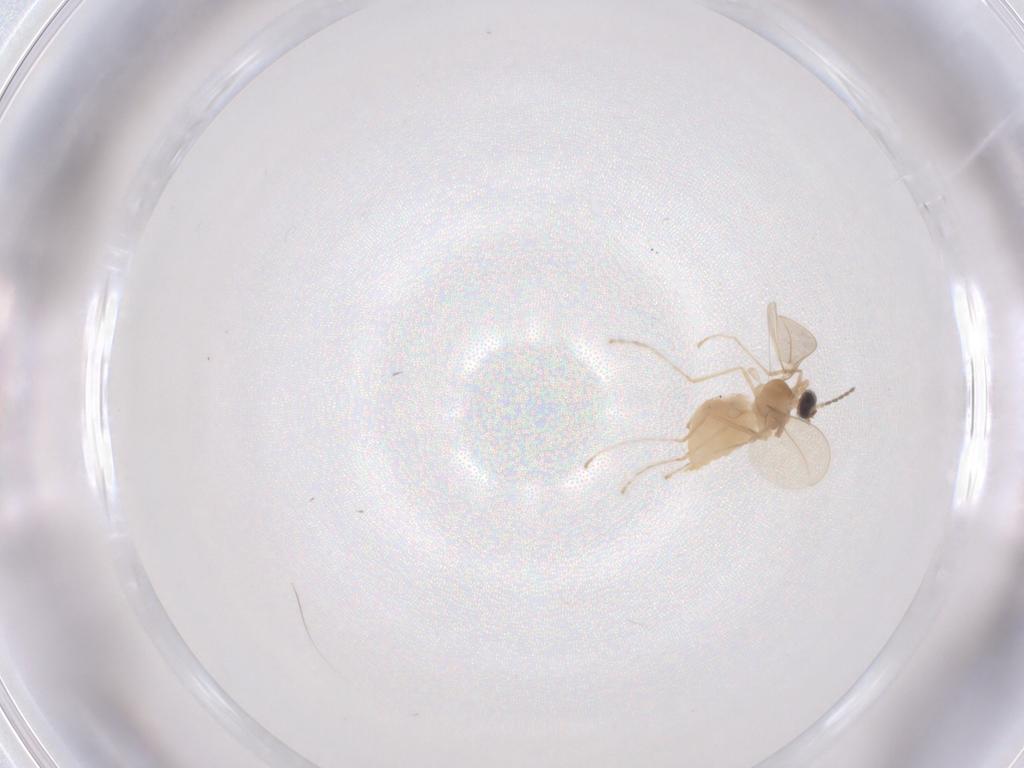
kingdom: Animalia
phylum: Arthropoda
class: Insecta
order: Diptera
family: Cecidomyiidae
